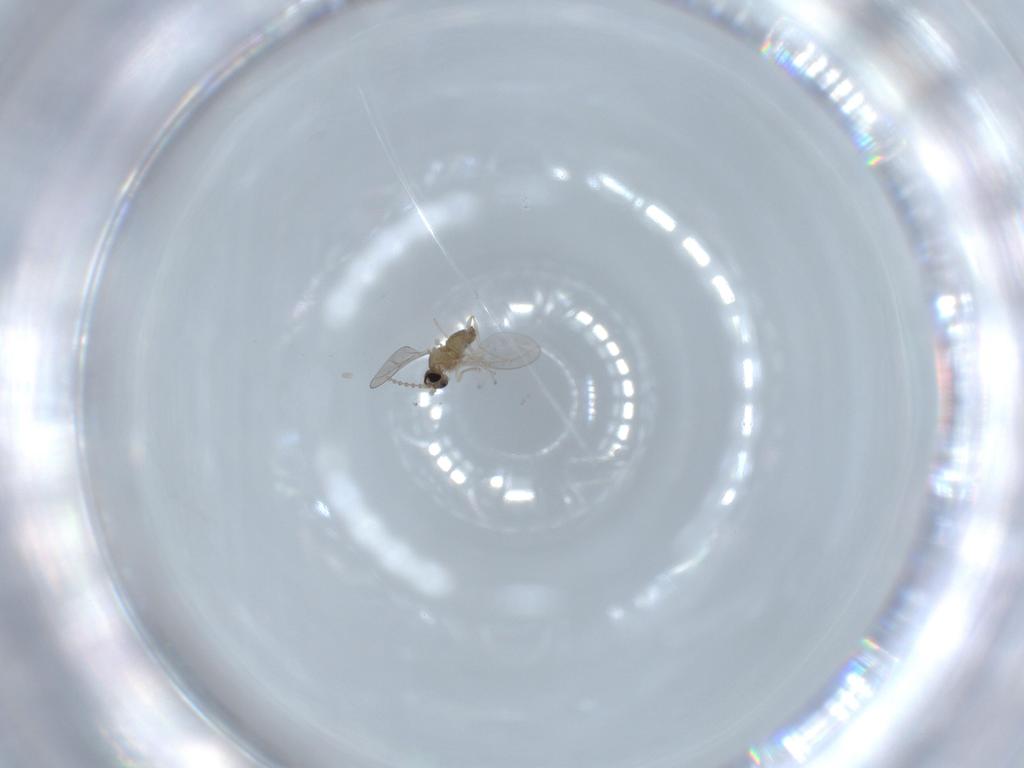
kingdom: Animalia
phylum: Arthropoda
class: Insecta
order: Diptera
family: Cecidomyiidae
